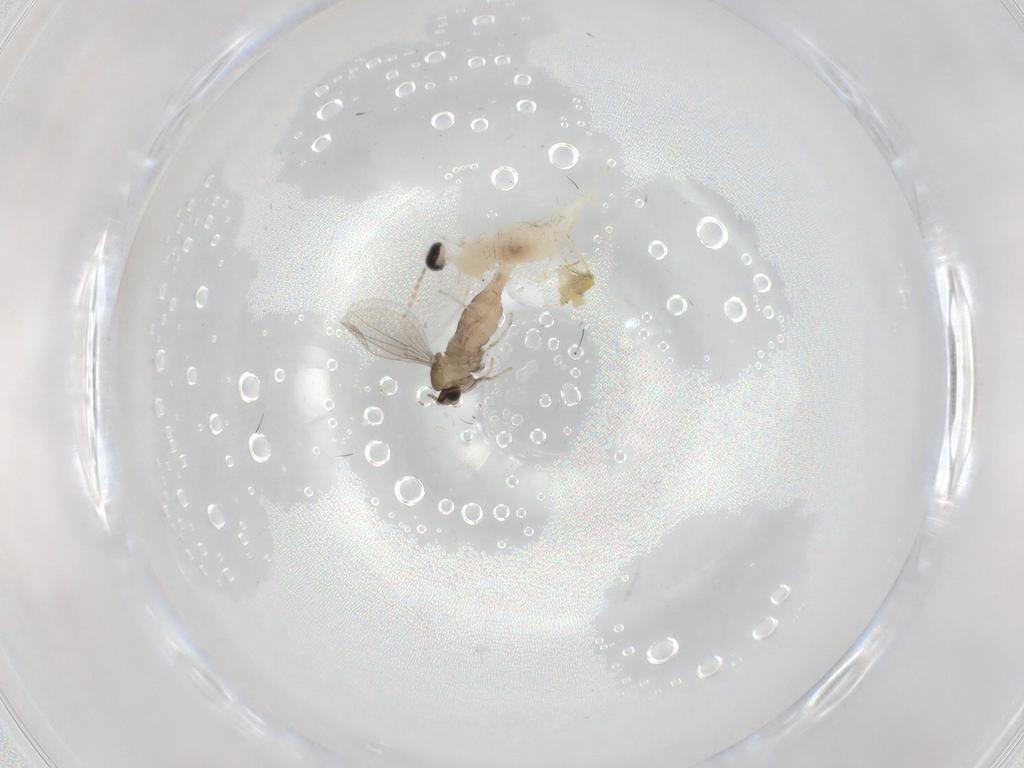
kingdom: Animalia
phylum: Arthropoda
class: Insecta
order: Diptera
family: Cecidomyiidae
